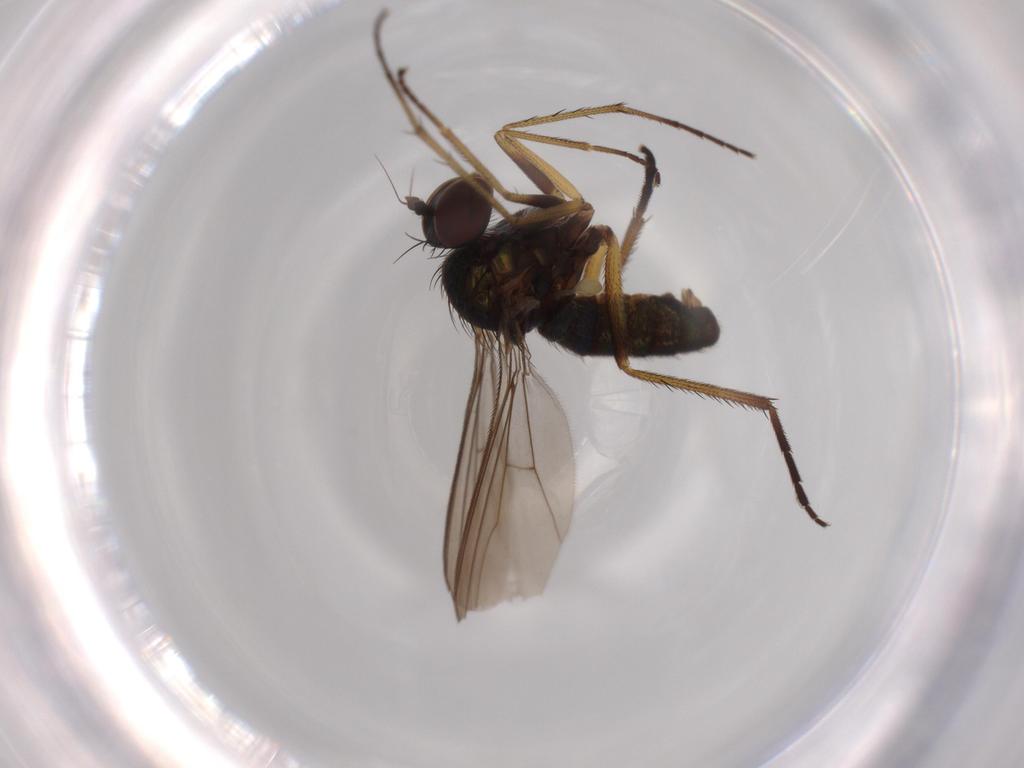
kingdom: Animalia
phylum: Arthropoda
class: Insecta
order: Diptera
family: Dolichopodidae
